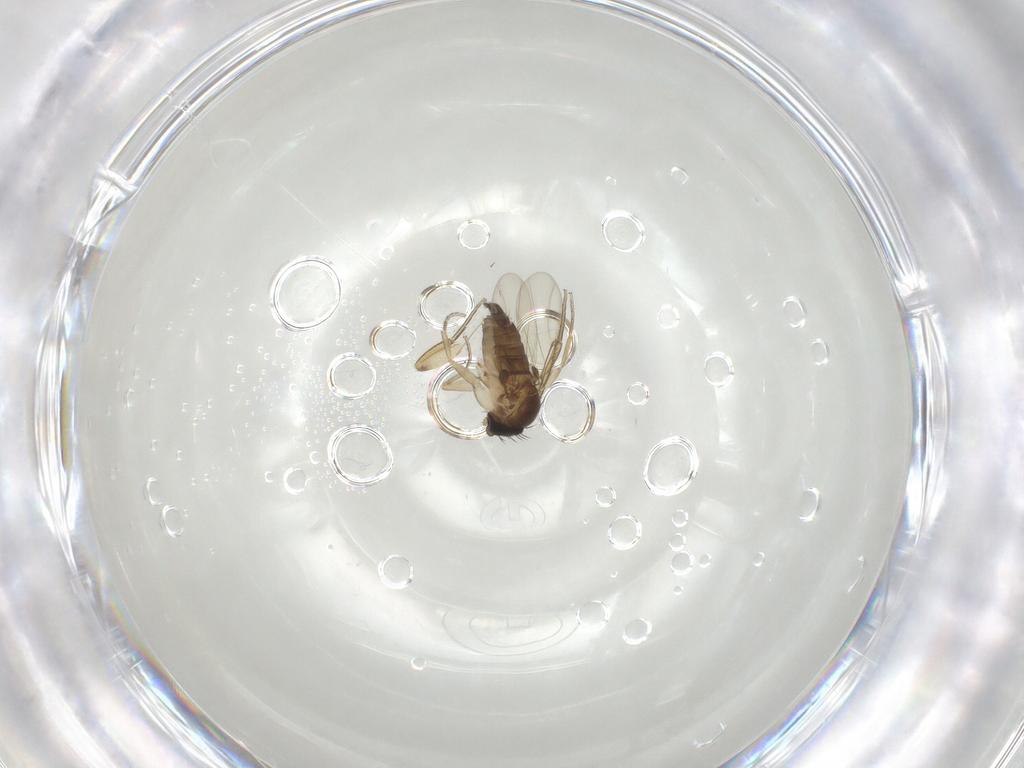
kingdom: Animalia
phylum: Arthropoda
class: Insecta
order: Diptera
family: Phoridae
